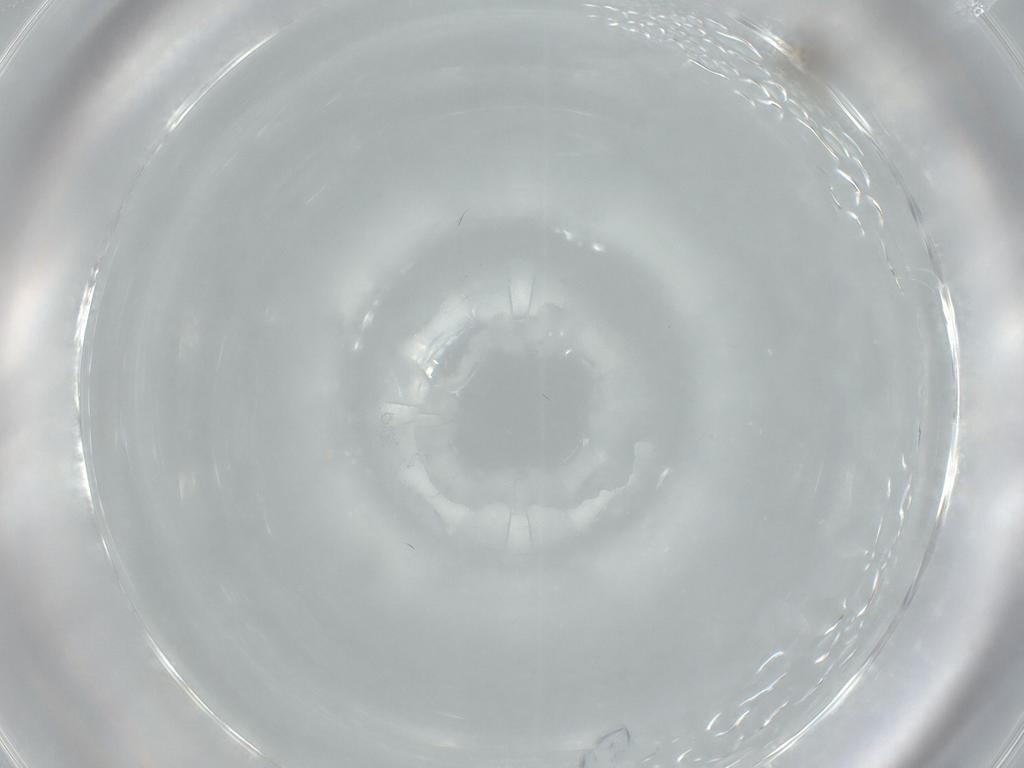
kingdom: Animalia
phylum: Arthropoda
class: Insecta
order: Diptera
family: Cecidomyiidae
